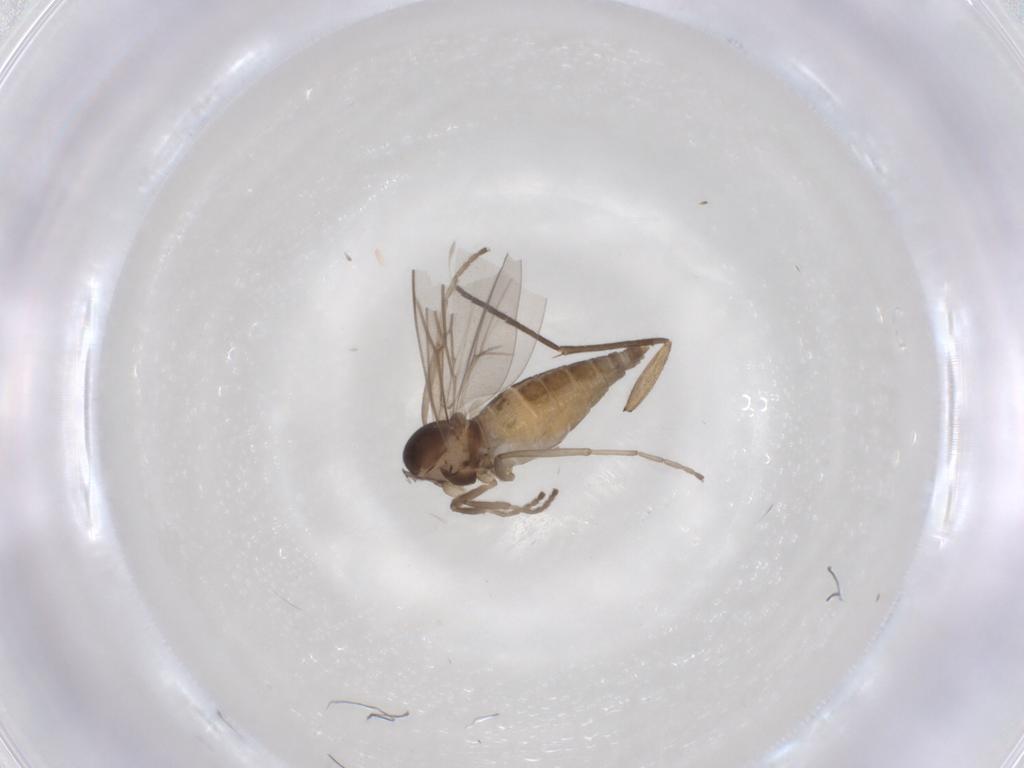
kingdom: Animalia
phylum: Arthropoda
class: Insecta
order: Diptera
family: Cecidomyiidae
